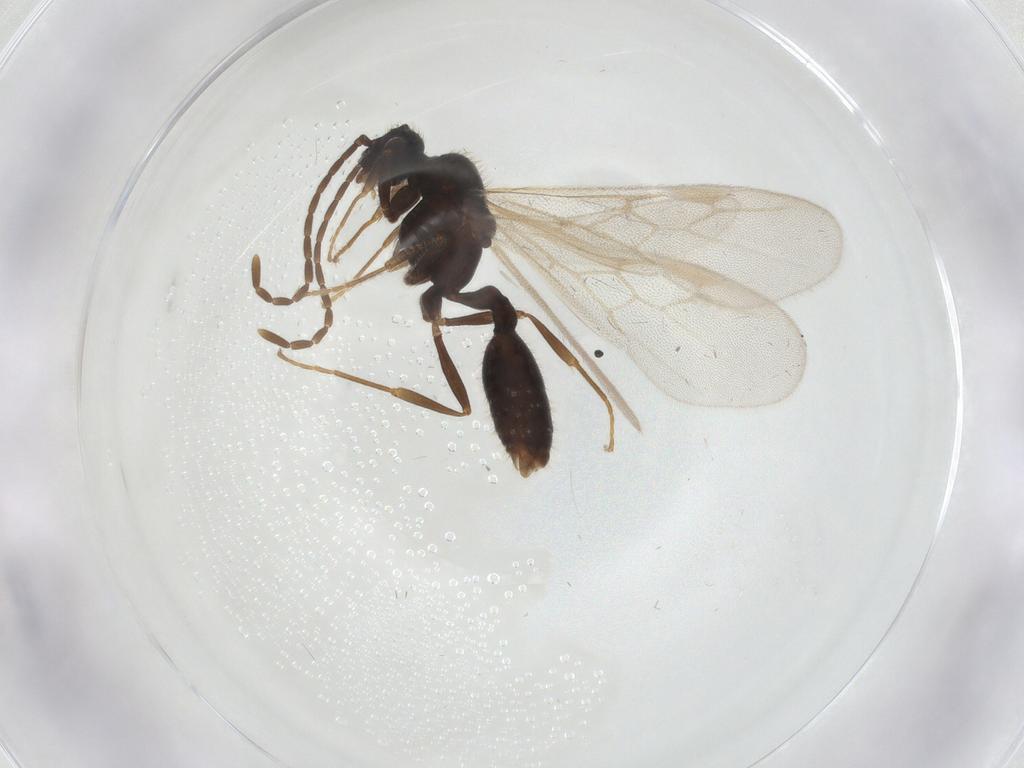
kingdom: Animalia
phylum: Arthropoda
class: Insecta
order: Hymenoptera
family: Formicidae
